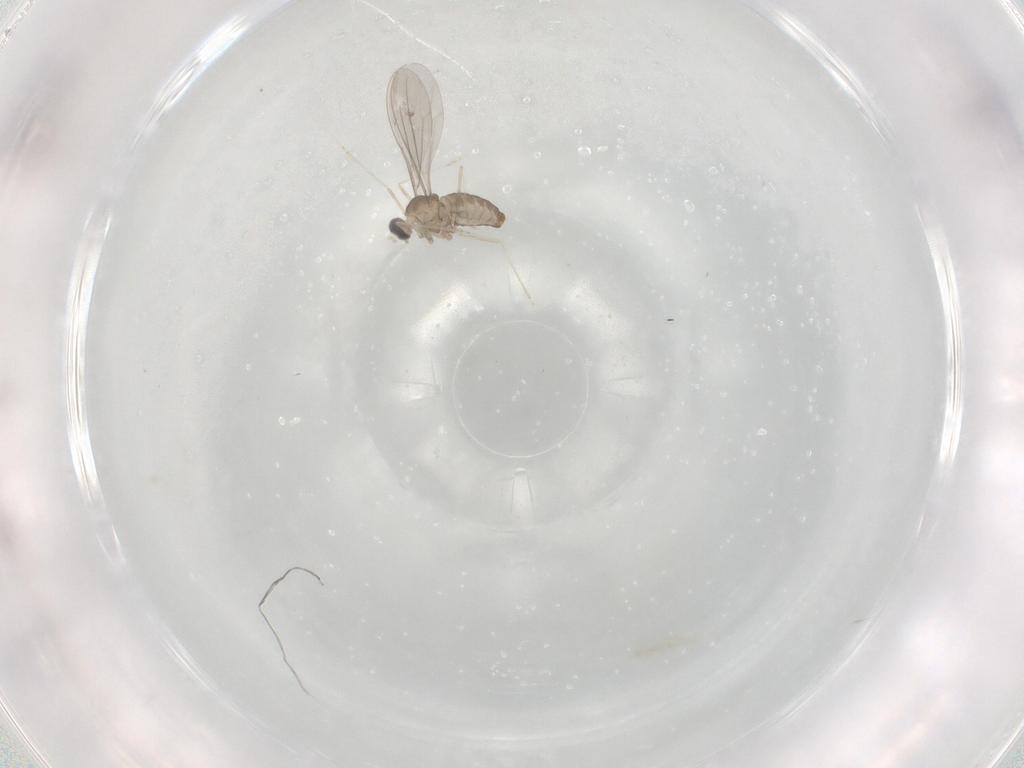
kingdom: Animalia
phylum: Arthropoda
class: Insecta
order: Diptera
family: Cecidomyiidae
